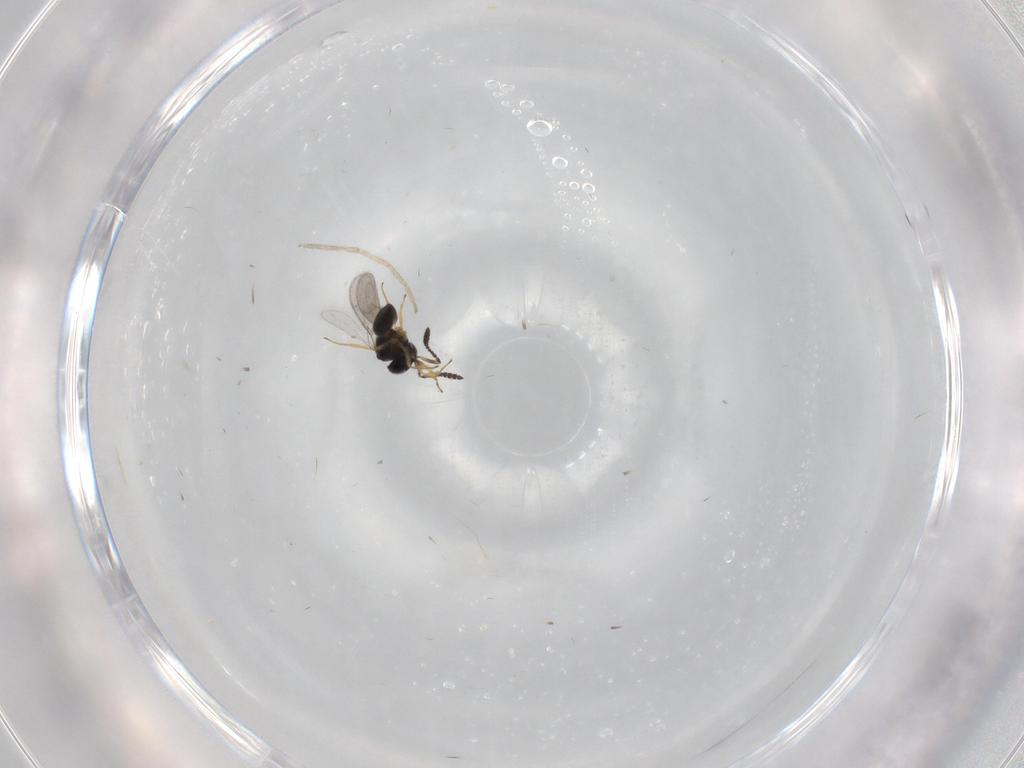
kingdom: Animalia
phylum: Arthropoda
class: Insecta
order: Hymenoptera
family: Scelionidae
